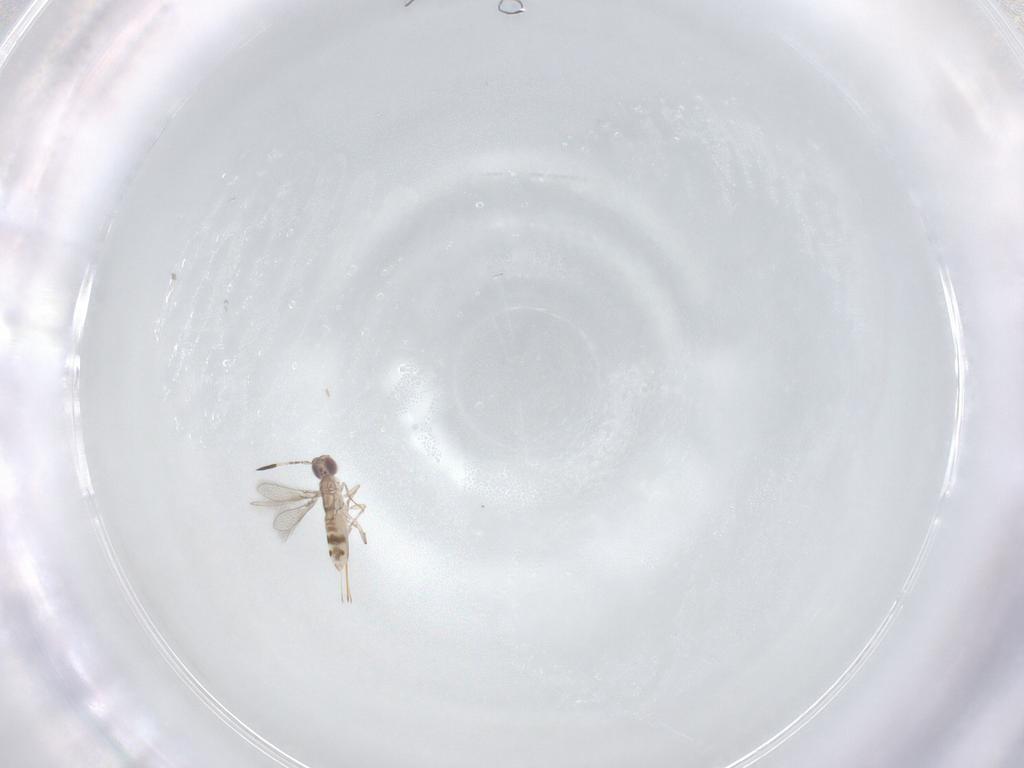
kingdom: Animalia
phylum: Arthropoda
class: Insecta
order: Hymenoptera
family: Mymaridae
